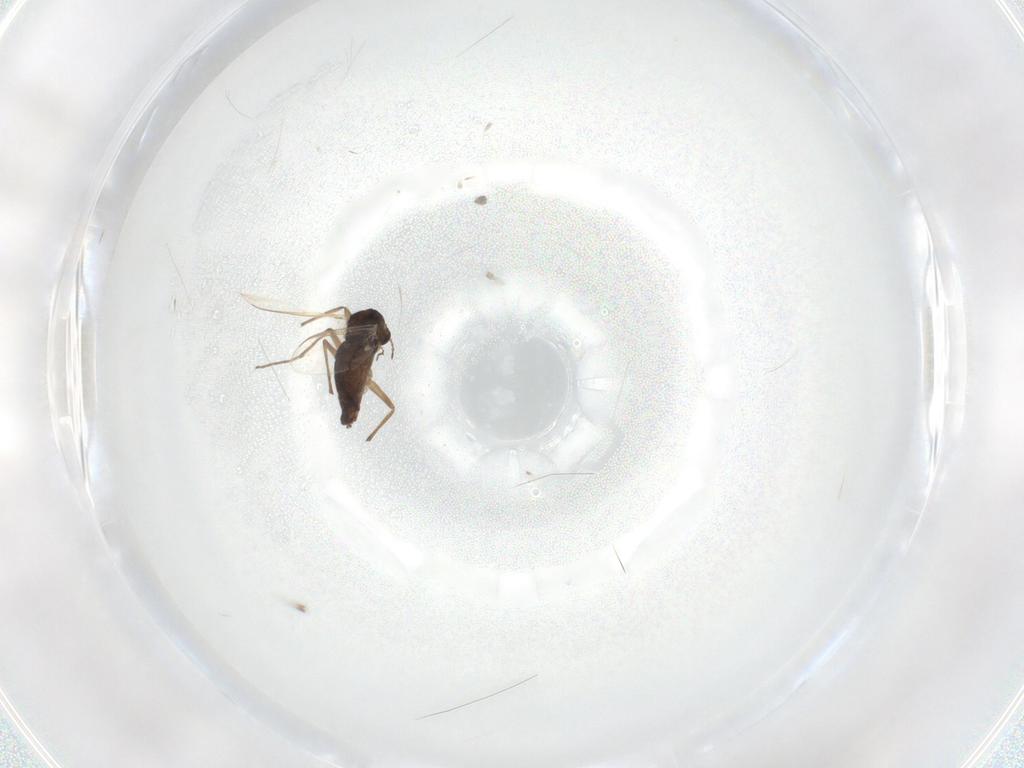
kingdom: Animalia
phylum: Arthropoda
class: Insecta
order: Diptera
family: Chironomidae
